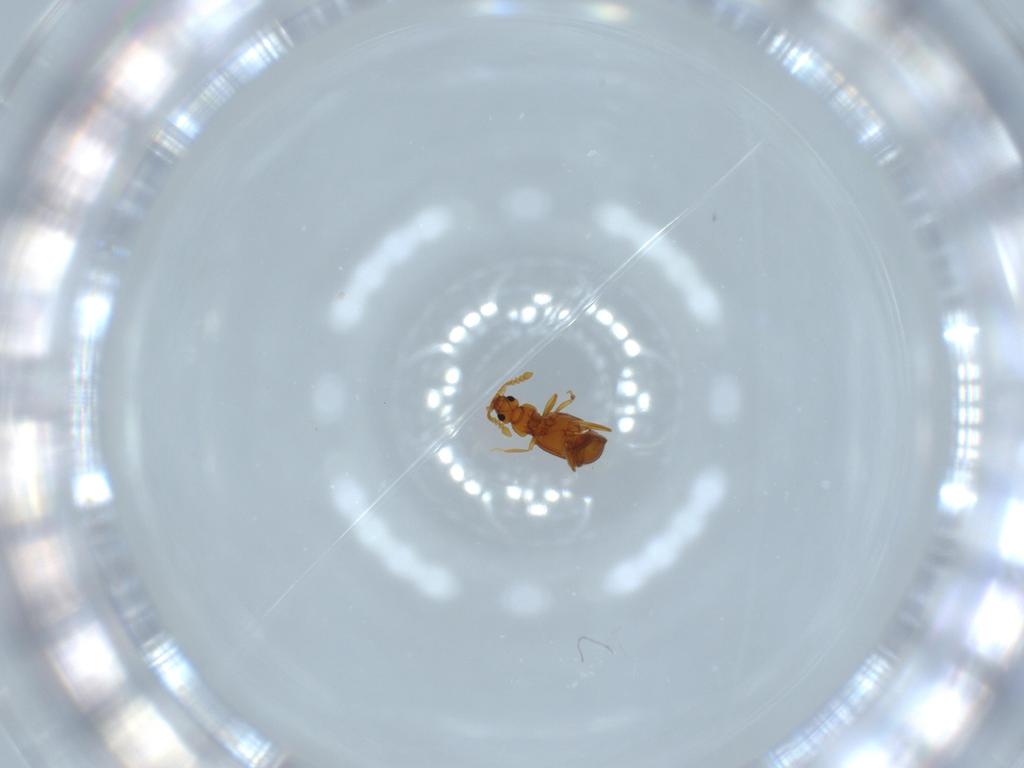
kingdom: Animalia
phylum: Arthropoda
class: Insecta
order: Coleoptera
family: Staphylinidae
